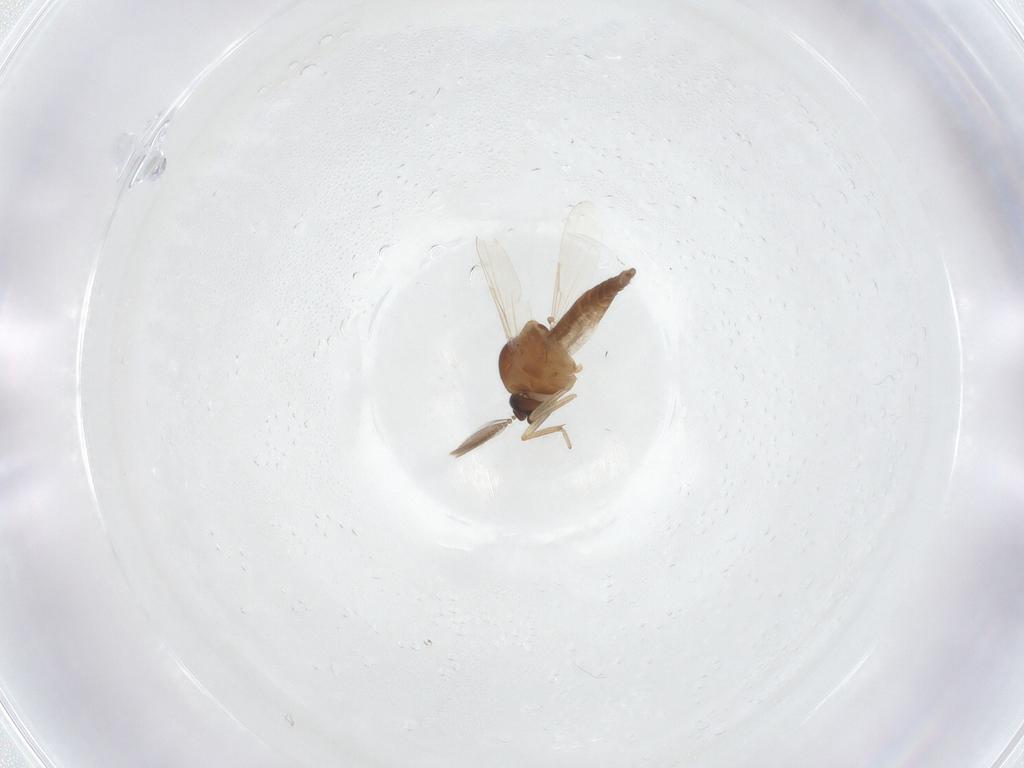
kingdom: Animalia
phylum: Arthropoda
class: Insecta
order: Diptera
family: Ceratopogonidae
